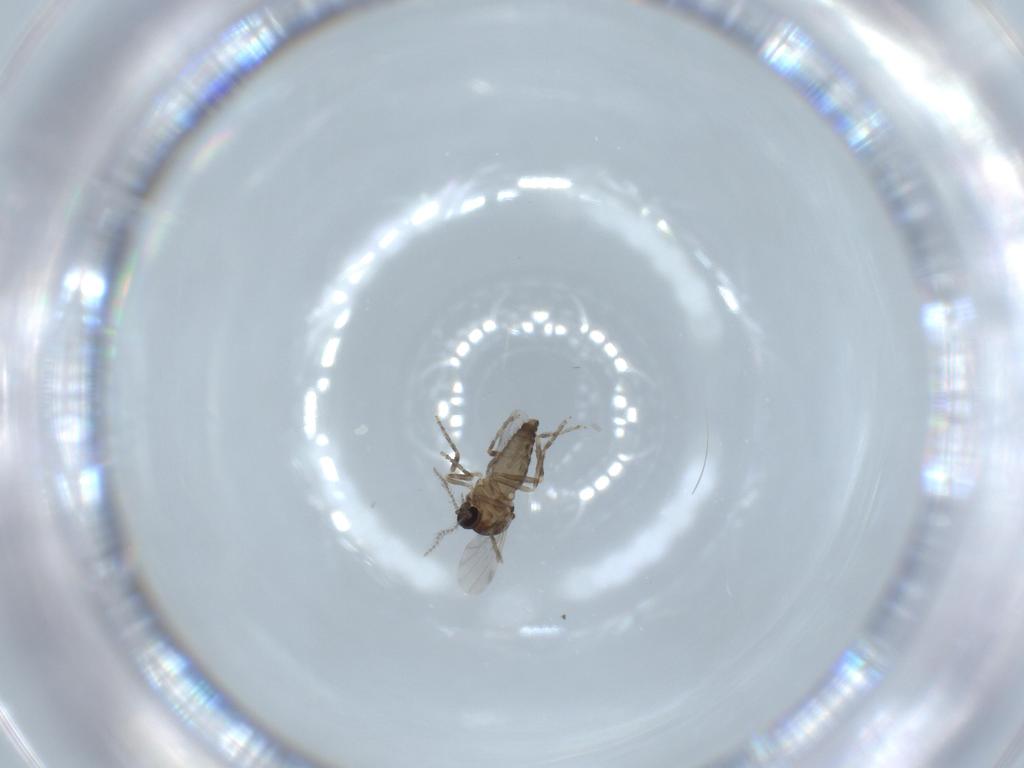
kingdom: Animalia
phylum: Arthropoda
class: Insecta
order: Diptera
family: Ceratopogonidae
